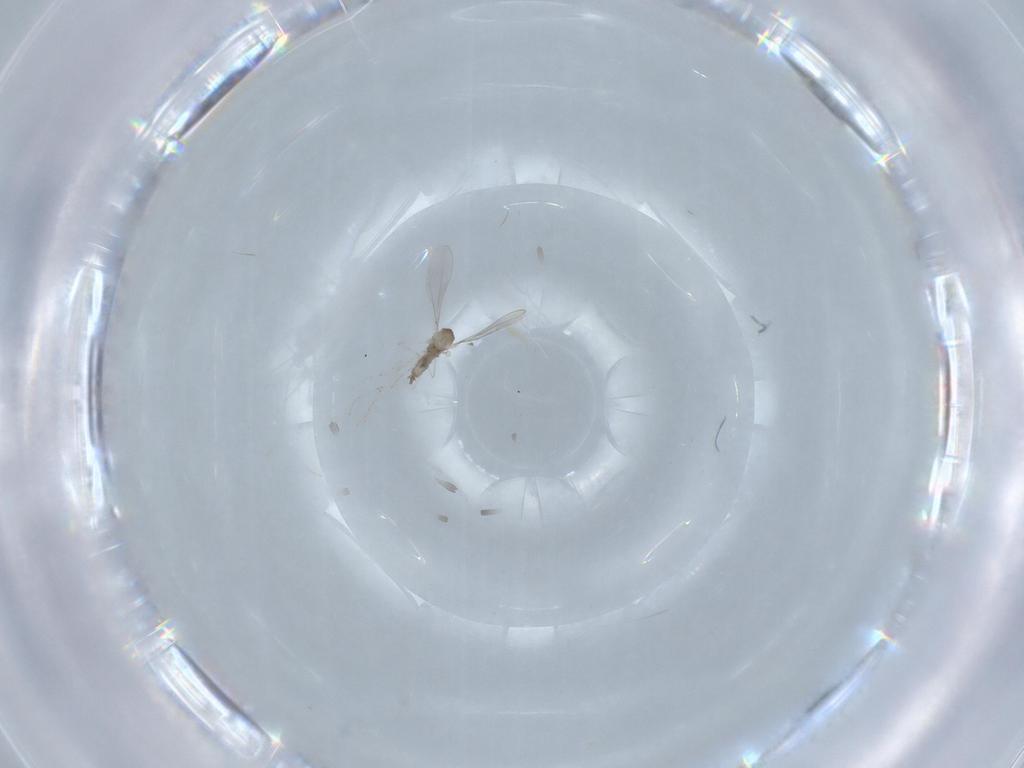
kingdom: Animalia
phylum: Arthropoda
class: Insecta
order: Diptera
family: Cecidomyiidae
